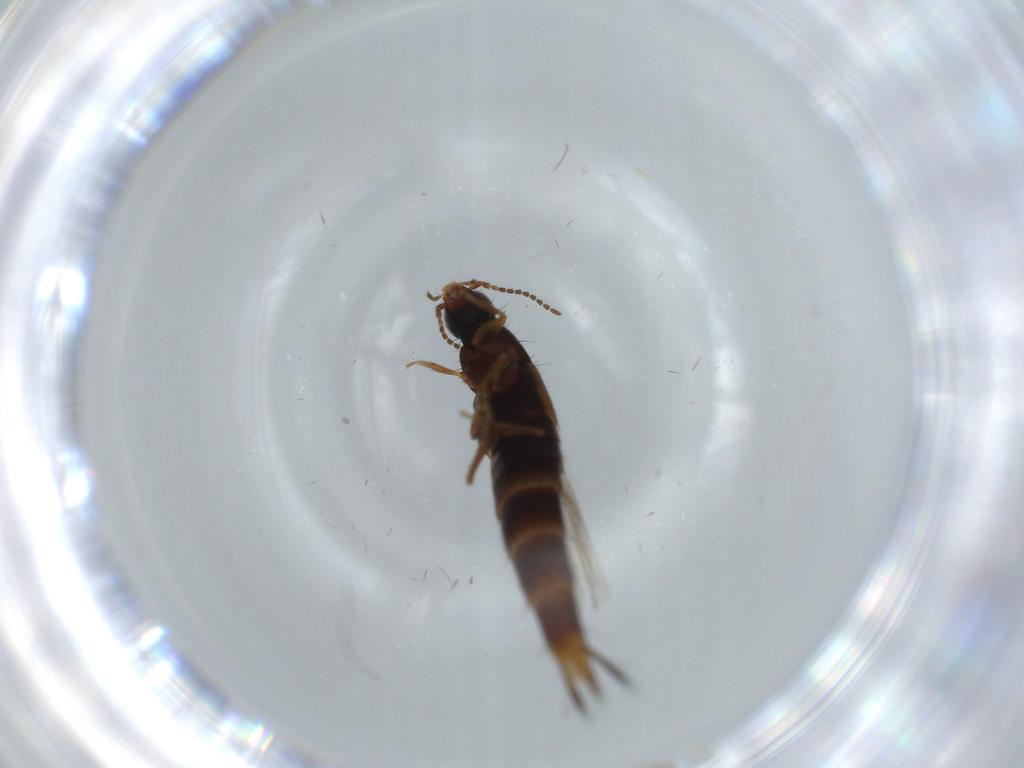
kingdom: Animalia
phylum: Arthropoda
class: Insecta
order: Coleoptera
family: Staphylinidae
